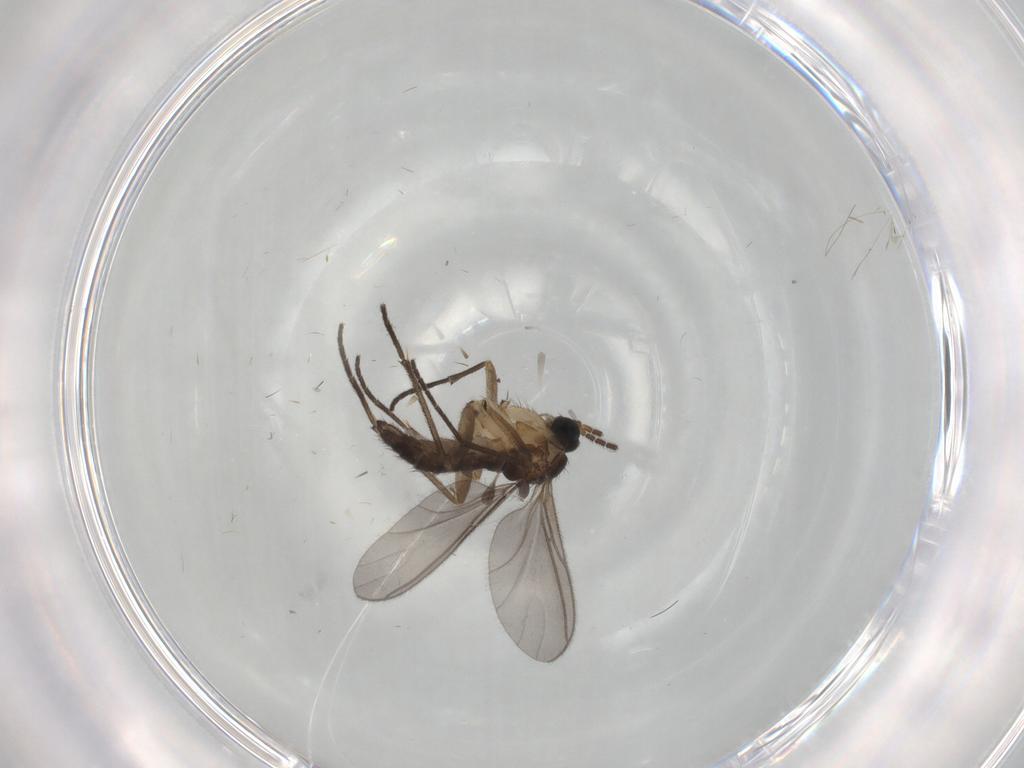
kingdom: Animalia
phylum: Arthropoda
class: Insecta
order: Diptera
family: Sciaridae
